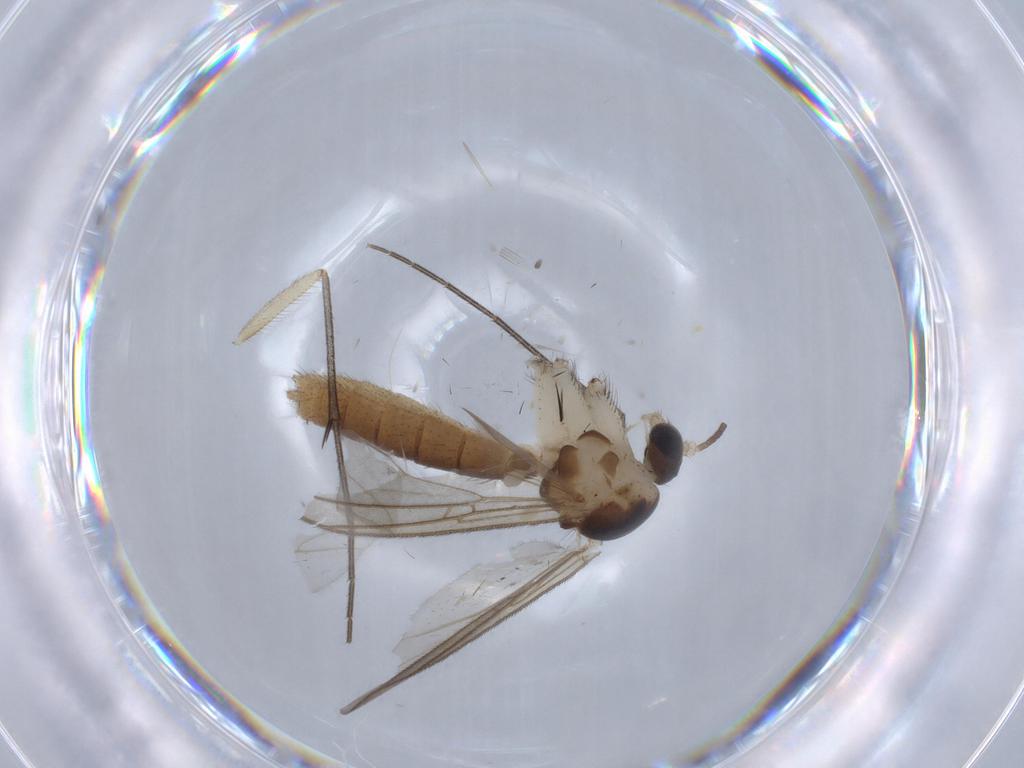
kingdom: Animalia
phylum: Arthropoda
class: Insecta
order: Diptera
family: Mycetophilidae
